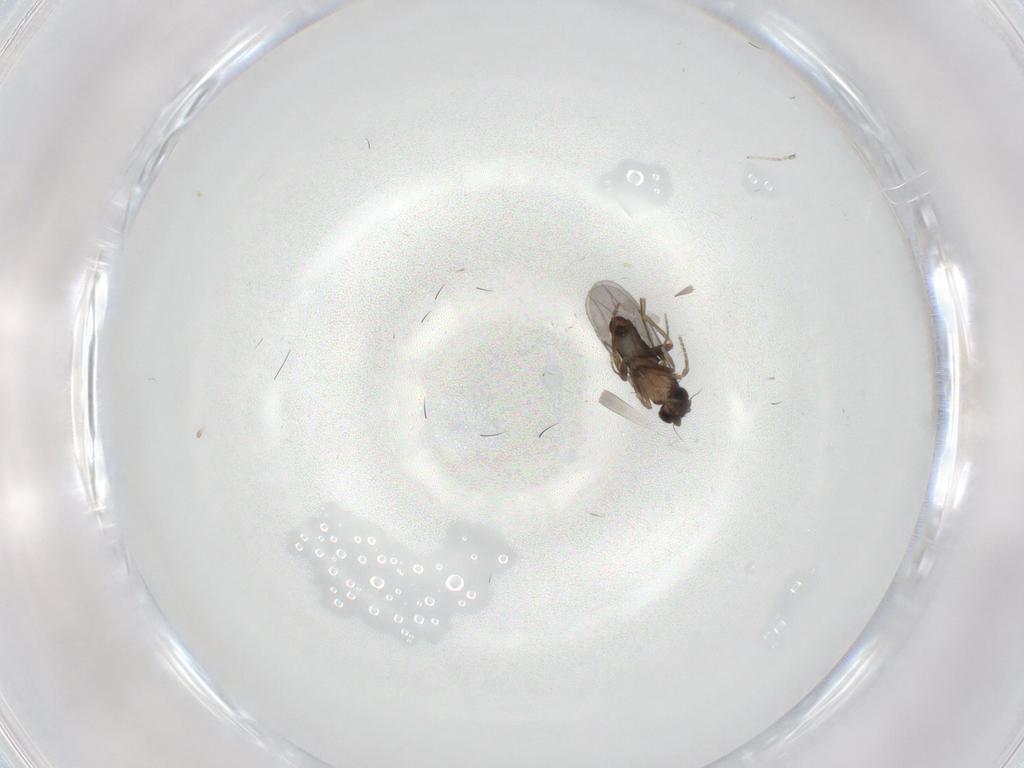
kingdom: Animalia
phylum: Arthropoda
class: Insecta
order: Diptera
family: Ceratopogonidae
